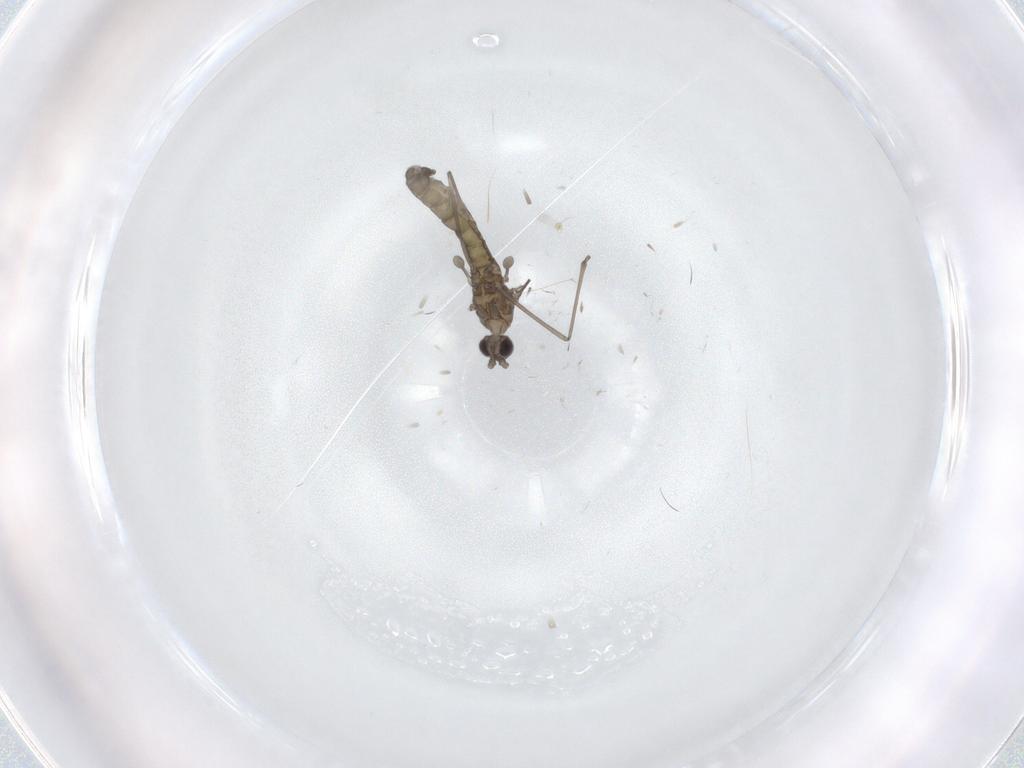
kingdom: Animalia
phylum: Arthropoda
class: Insecta
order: Diptera
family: Cecidomyiidae
